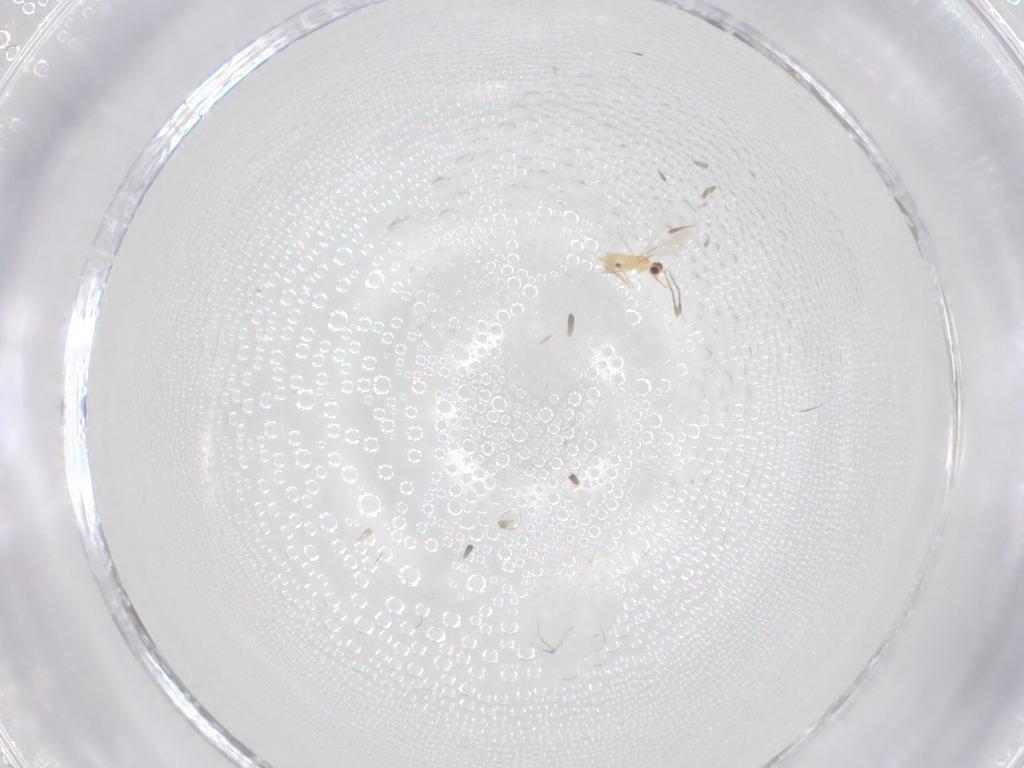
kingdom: Animalia
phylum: Arthropoda
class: Insecta
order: Hymenoptera
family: Mymaridae
